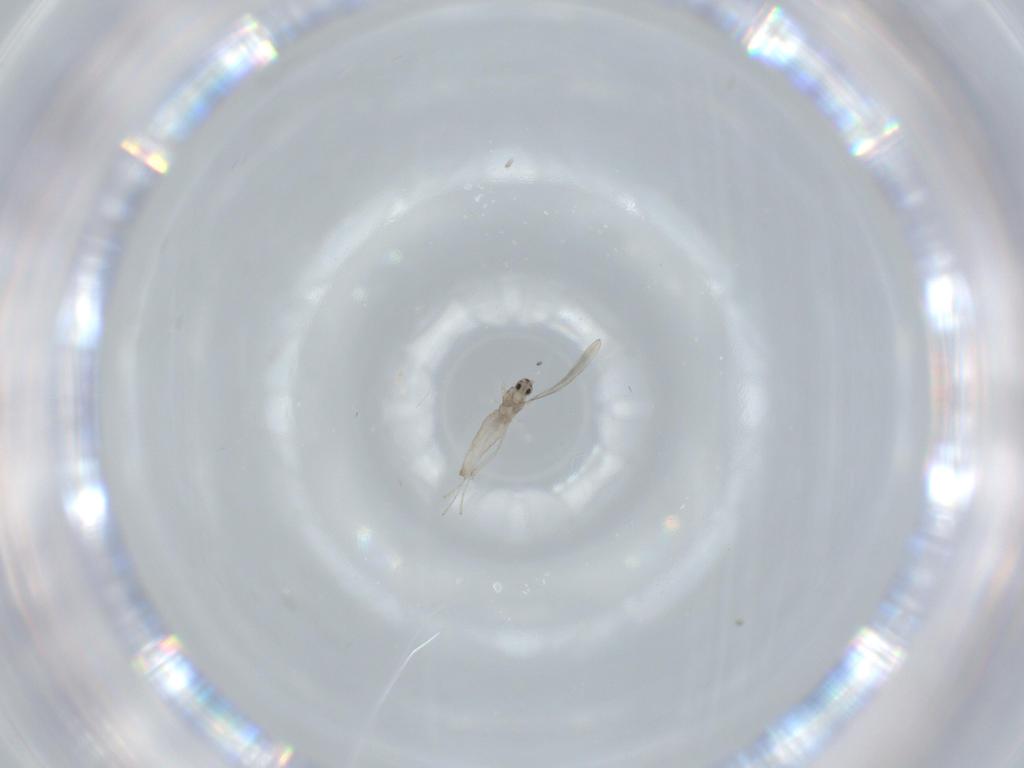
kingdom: Animalia
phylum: Arthropoda
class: Insecta
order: Diptera
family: Cecidomyiidae
